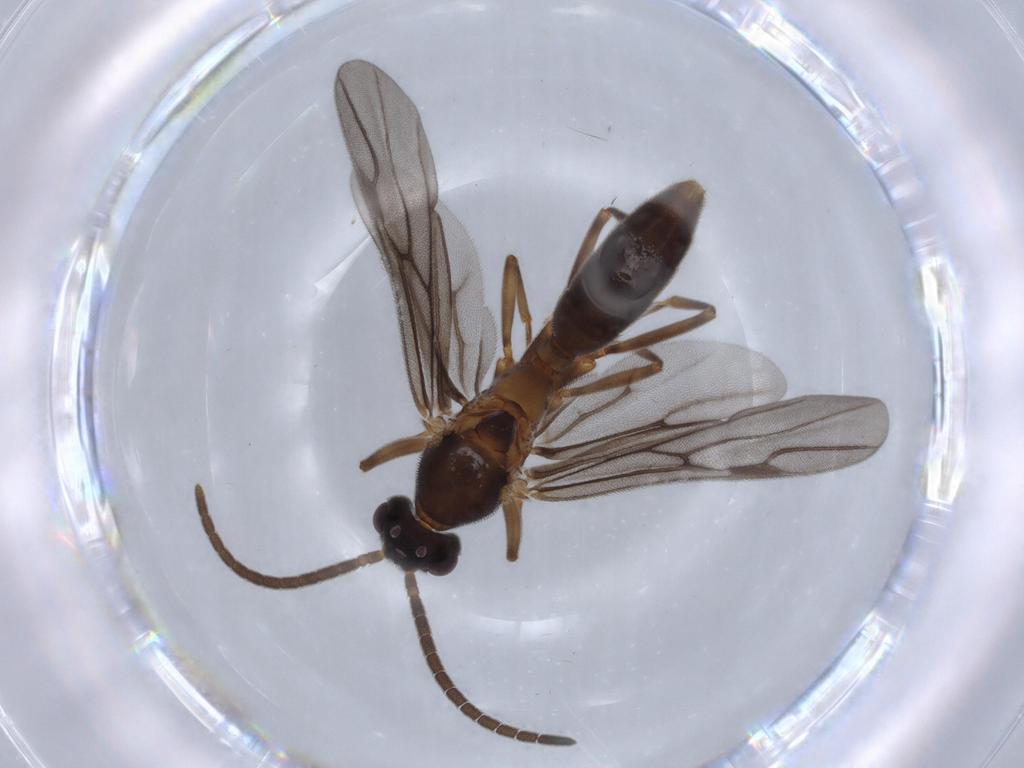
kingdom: Animalia
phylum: Arthropoda
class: Insecta
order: Hymenoptera
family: Formicidae
